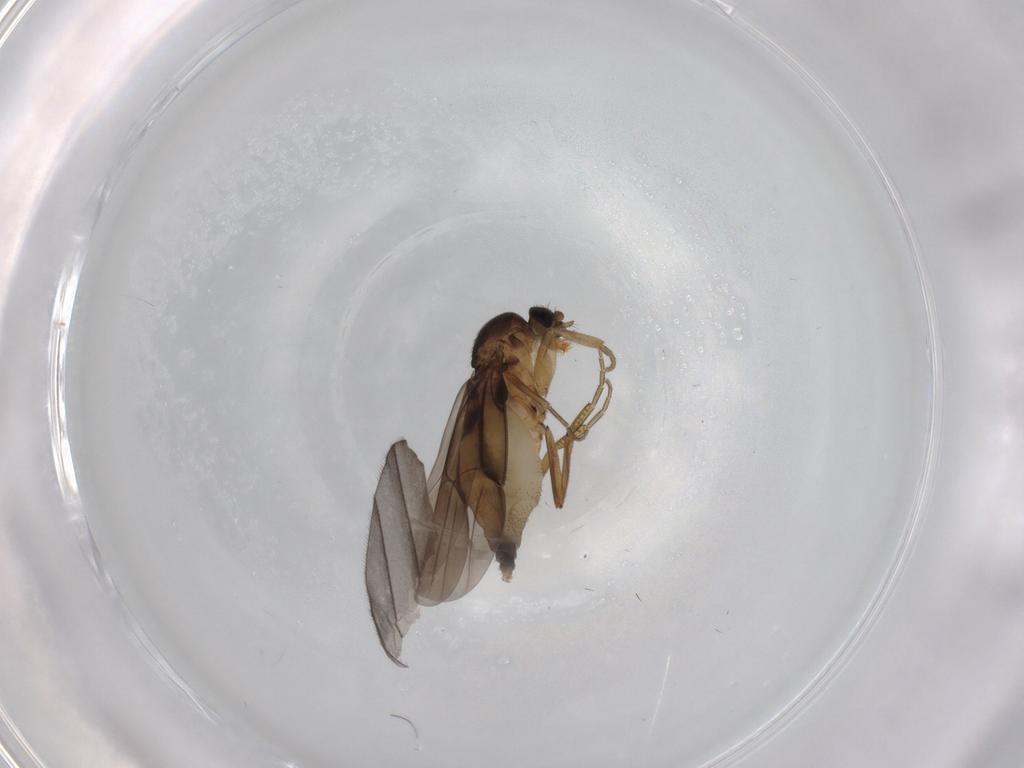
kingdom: Animalia
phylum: Arthropoda
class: Insecta
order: Diptera
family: Phoridae
